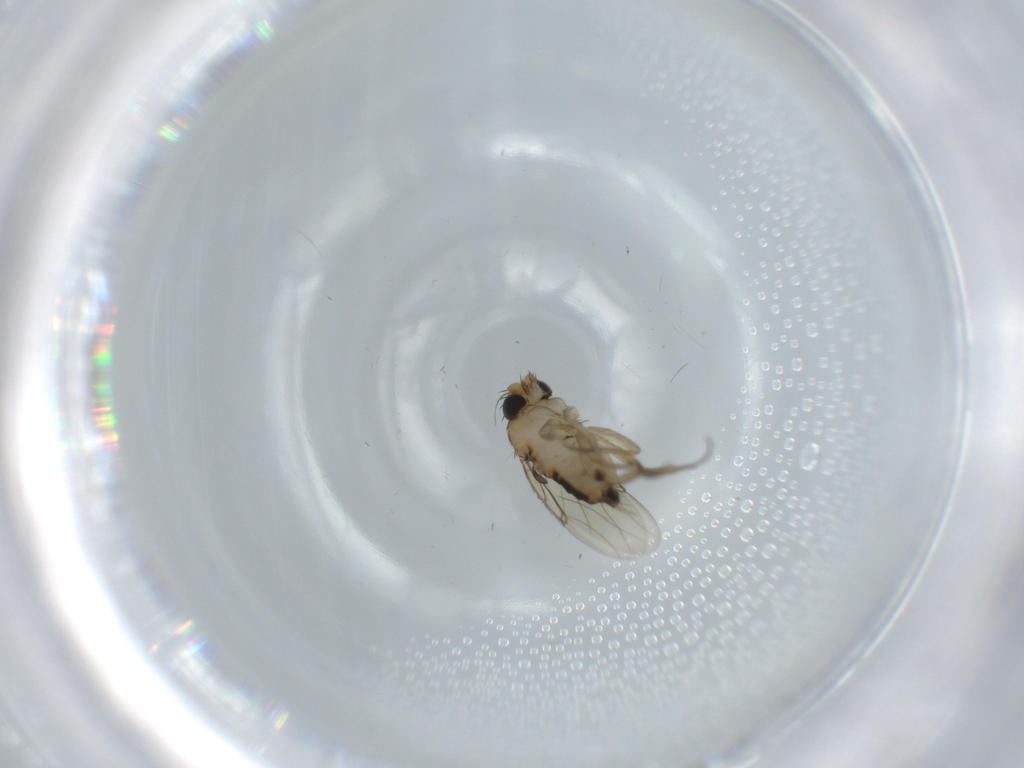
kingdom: Animalia
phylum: Arthropoda
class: Insecta
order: Diptera
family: Phoridae
